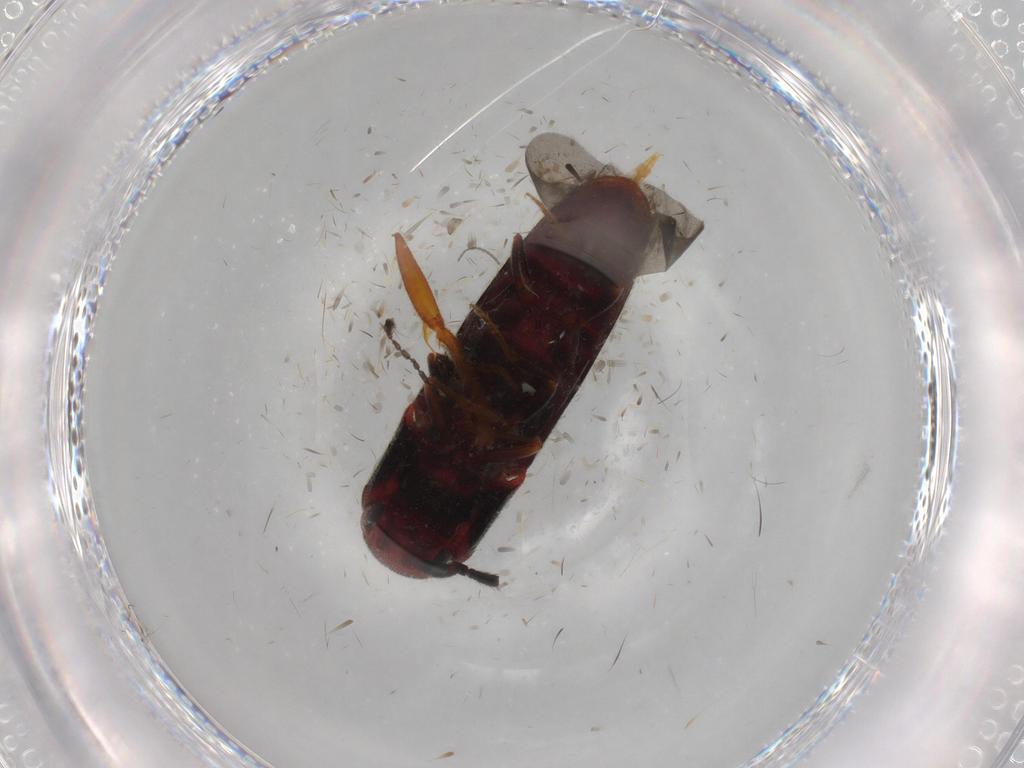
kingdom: Animalia
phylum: Arthropoda
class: Insecta
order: Coleoptera
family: Eucnemidae
